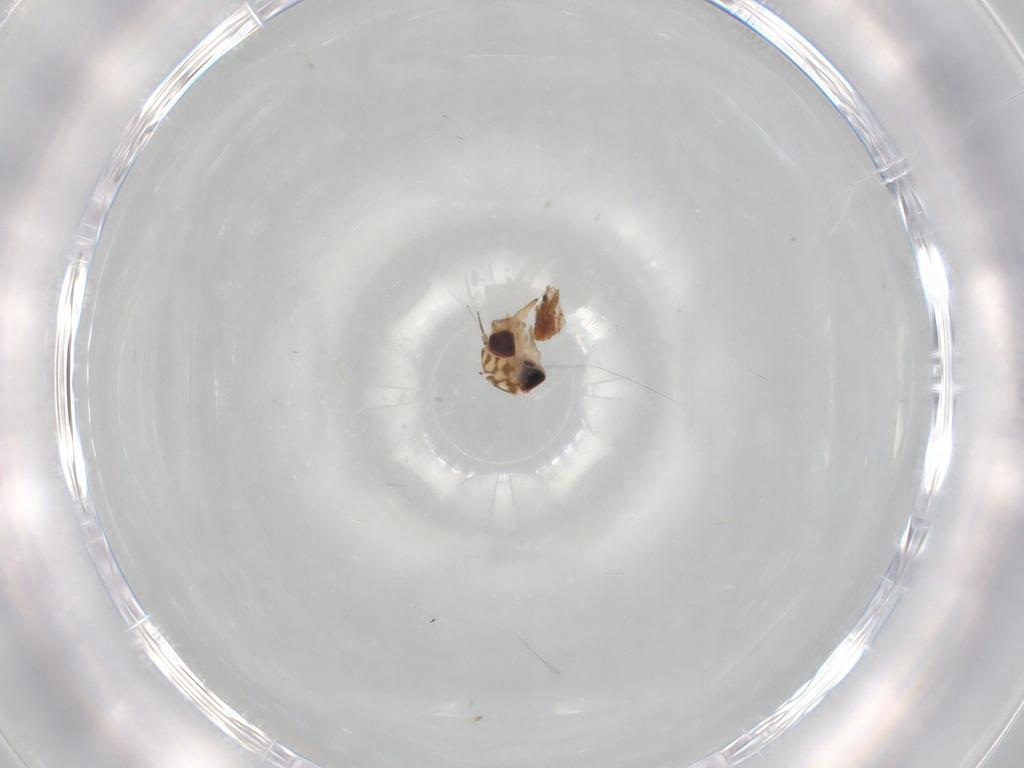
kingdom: Animalia
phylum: Arthropoda
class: Insecta
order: Hemiptera
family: Cicadellidae
